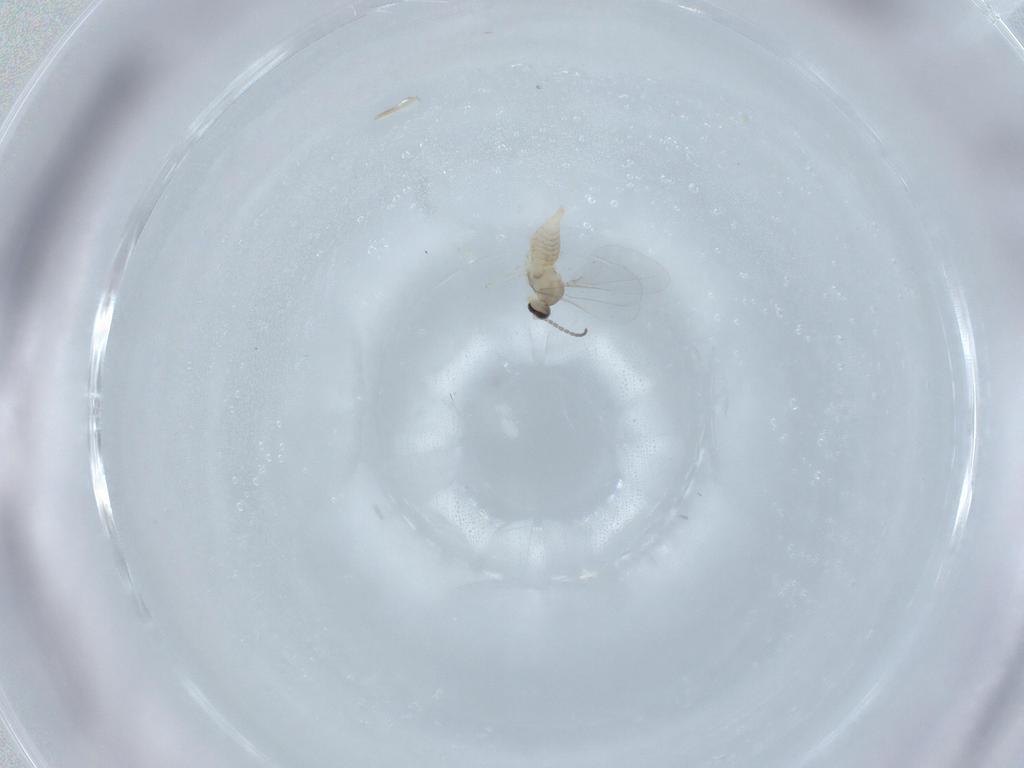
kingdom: Animalia
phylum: Arthropoda
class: Insecta
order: Diptera
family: Cecidomyiidae
